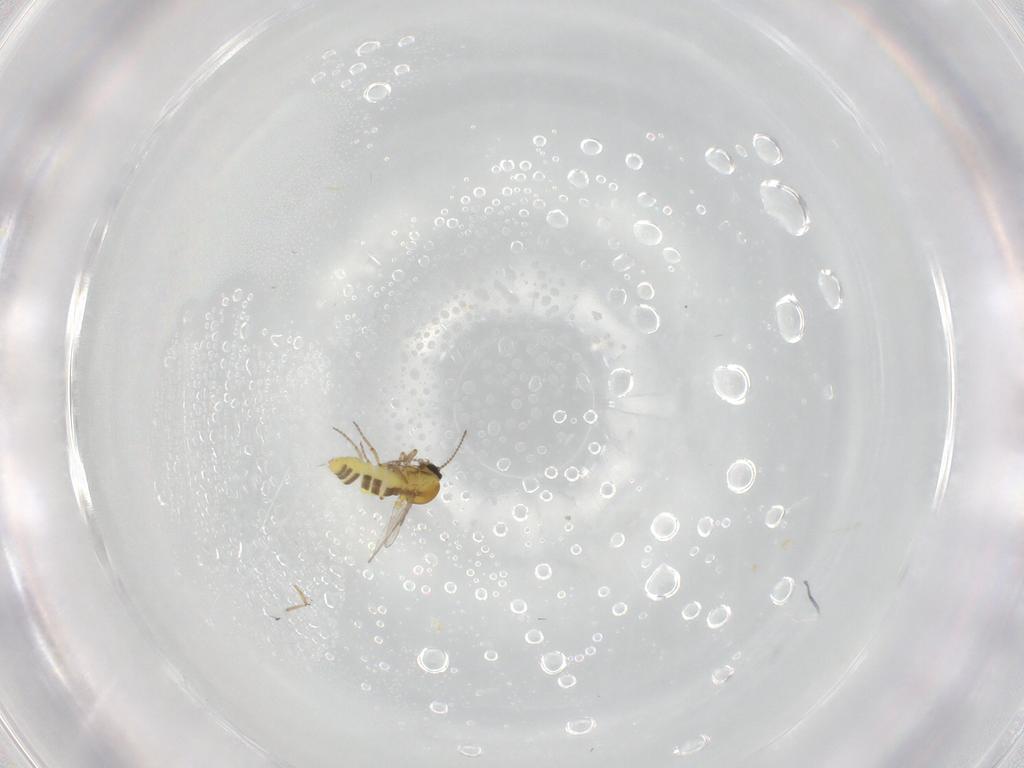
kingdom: Animalia
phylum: Arthropoda
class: Insecta
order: Diptera
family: Ceratopogonidae
